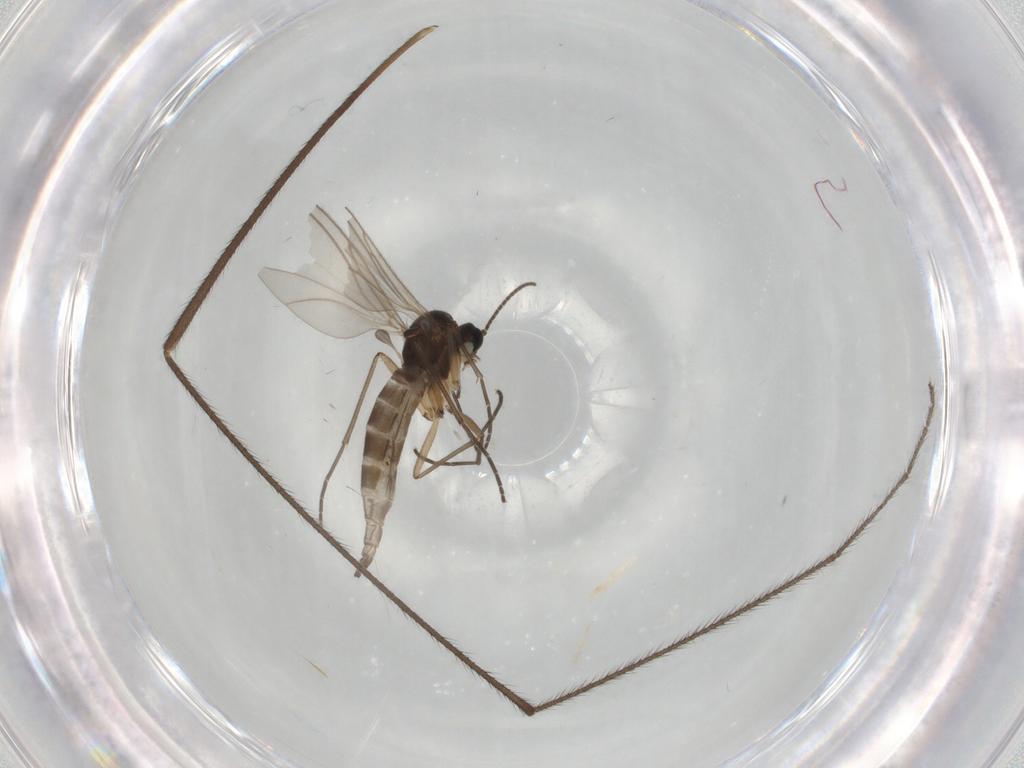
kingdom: Animalia
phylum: Arthropoda
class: Insecta
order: Diptera
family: Sciaridae
